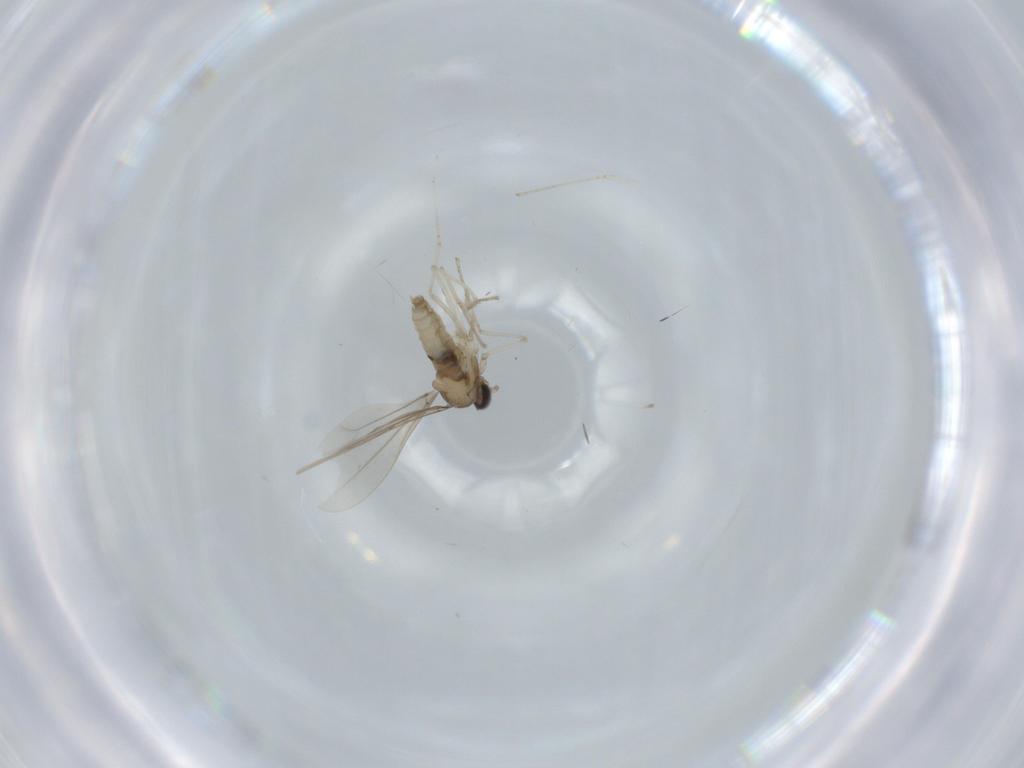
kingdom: Animalia
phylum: Arthropoda
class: Insecta
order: Diptera
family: Cecidomyiidae
